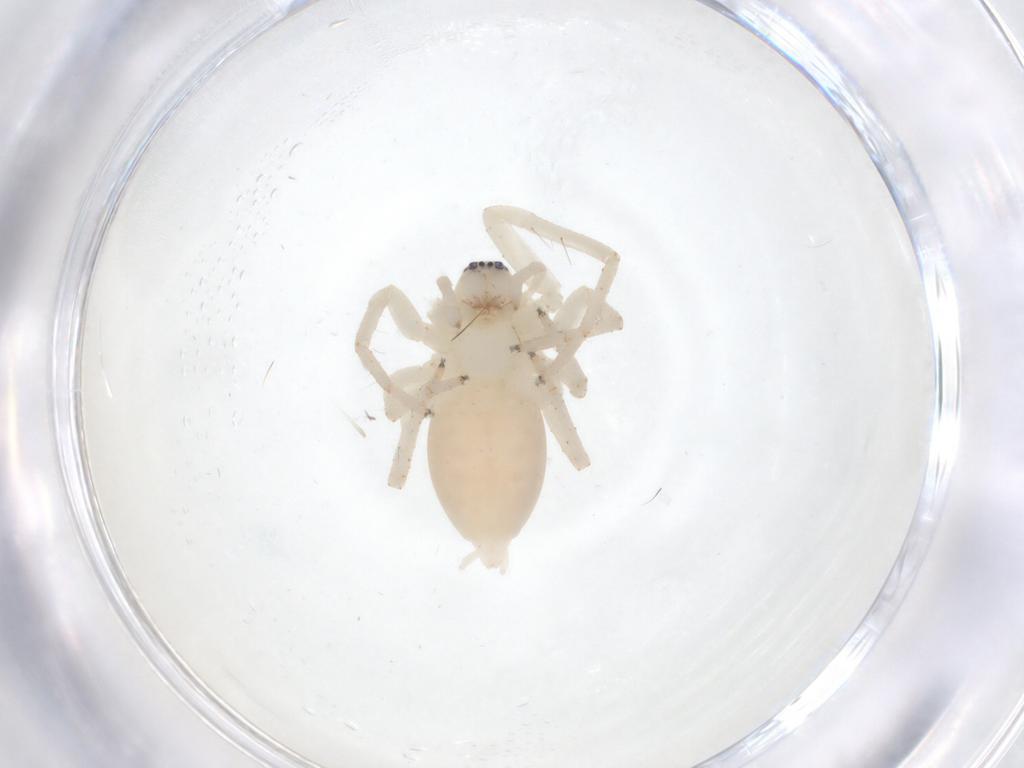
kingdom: Animalia
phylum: Arthropoda
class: Arachnida
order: Araneae
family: Anyphaenidae
